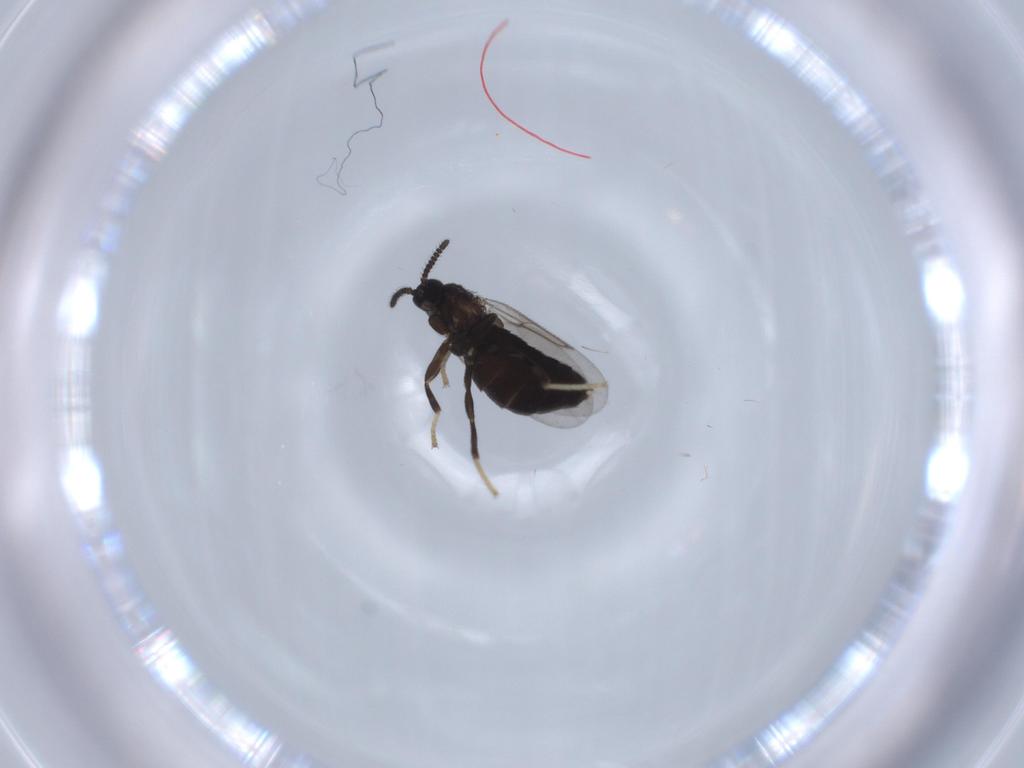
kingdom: Animalia
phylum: Arthropoda
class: Insecta
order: Diptera
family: Scatopsidae
